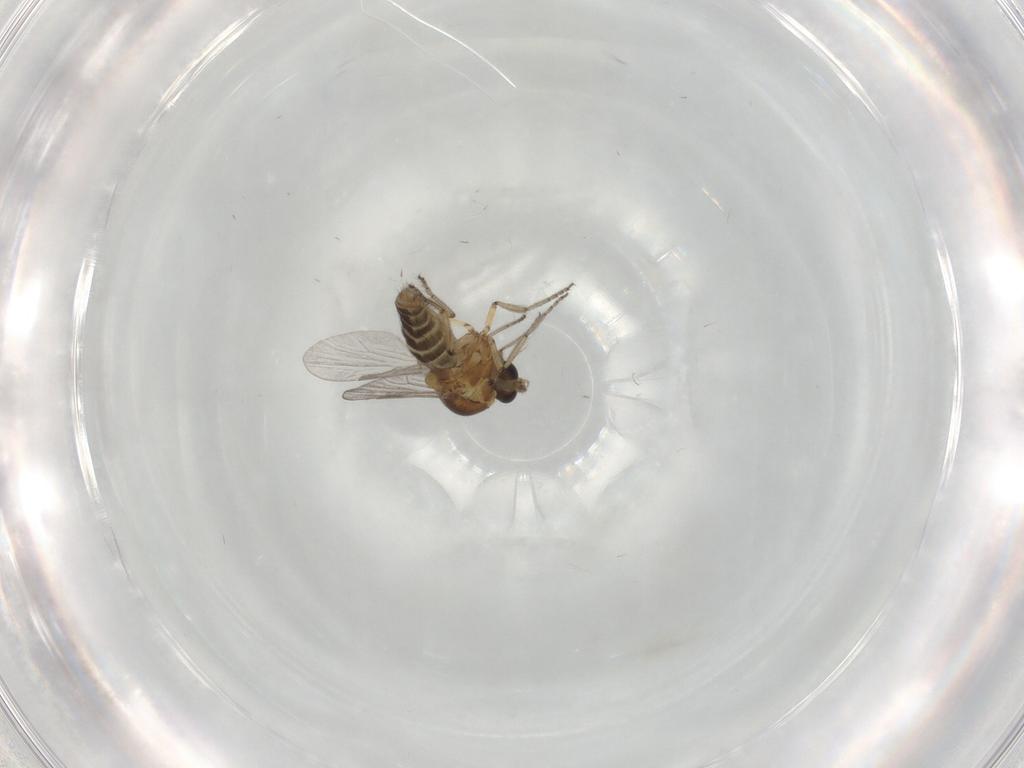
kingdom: Animalia
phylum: Arthropoda
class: Insecta
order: Diptera
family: Ceratopogonidae
